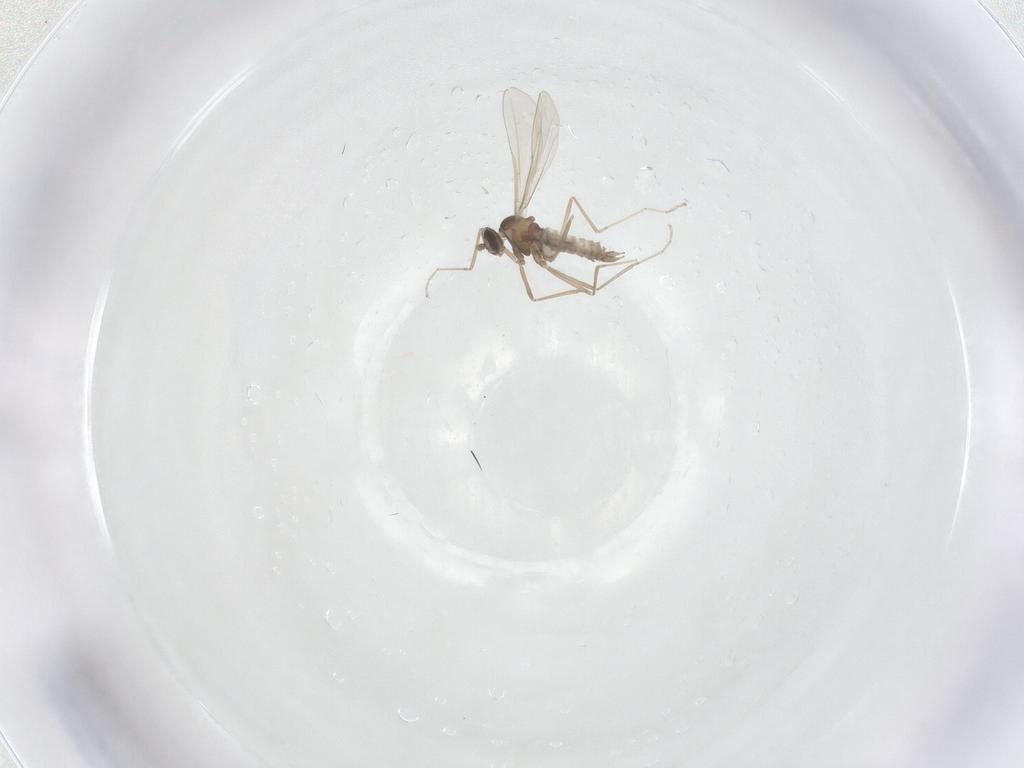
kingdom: Animalia
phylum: Arthropoda
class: Insecta
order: Diptera
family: Cecidomyiidae
